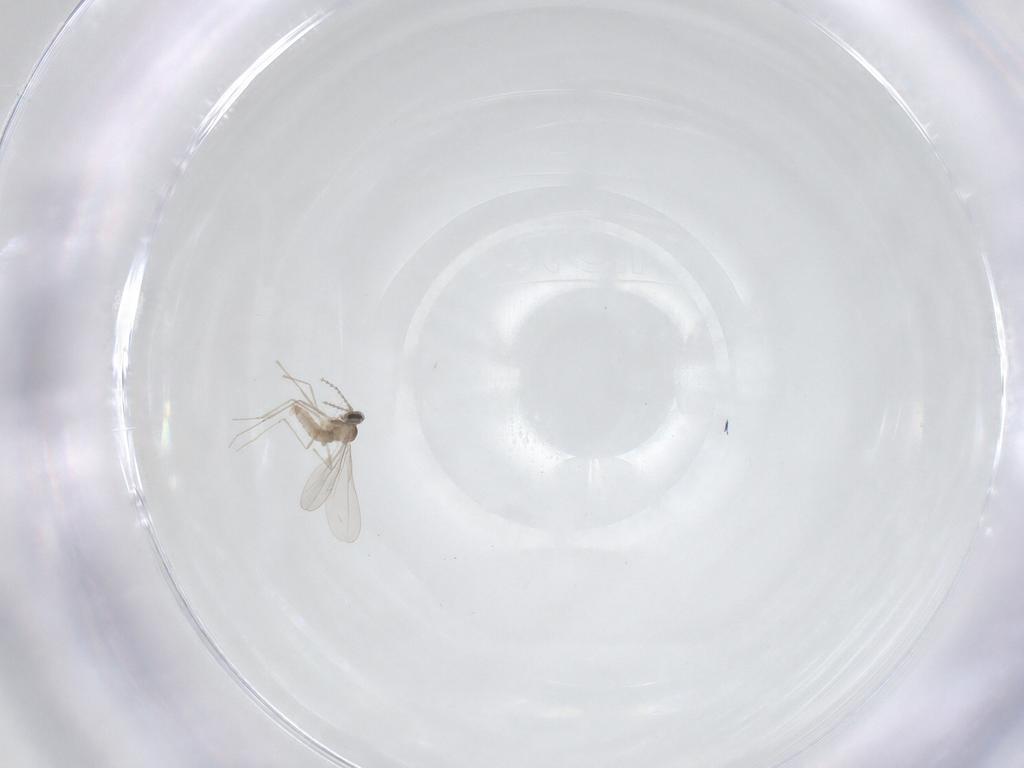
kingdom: Animalia
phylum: Arthropoda
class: Insecta
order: Diptera
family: Cecidomyiidae
